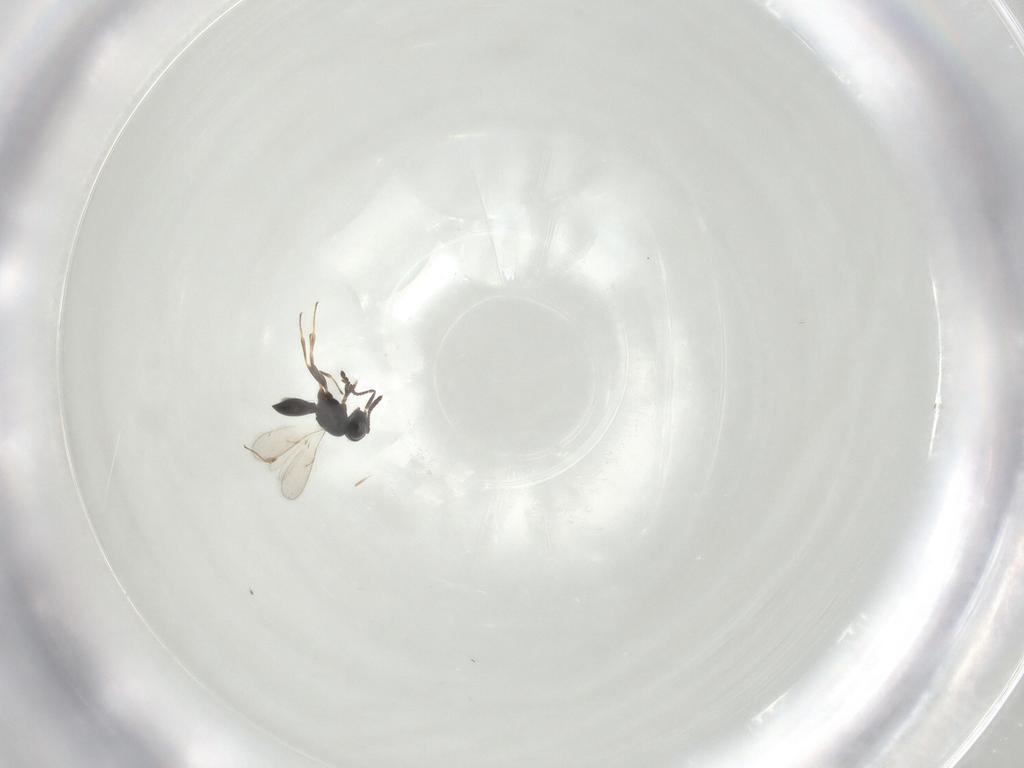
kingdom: Animalia
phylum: Arthropoda
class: Insecta
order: Hymenoptera
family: Scelionidae
